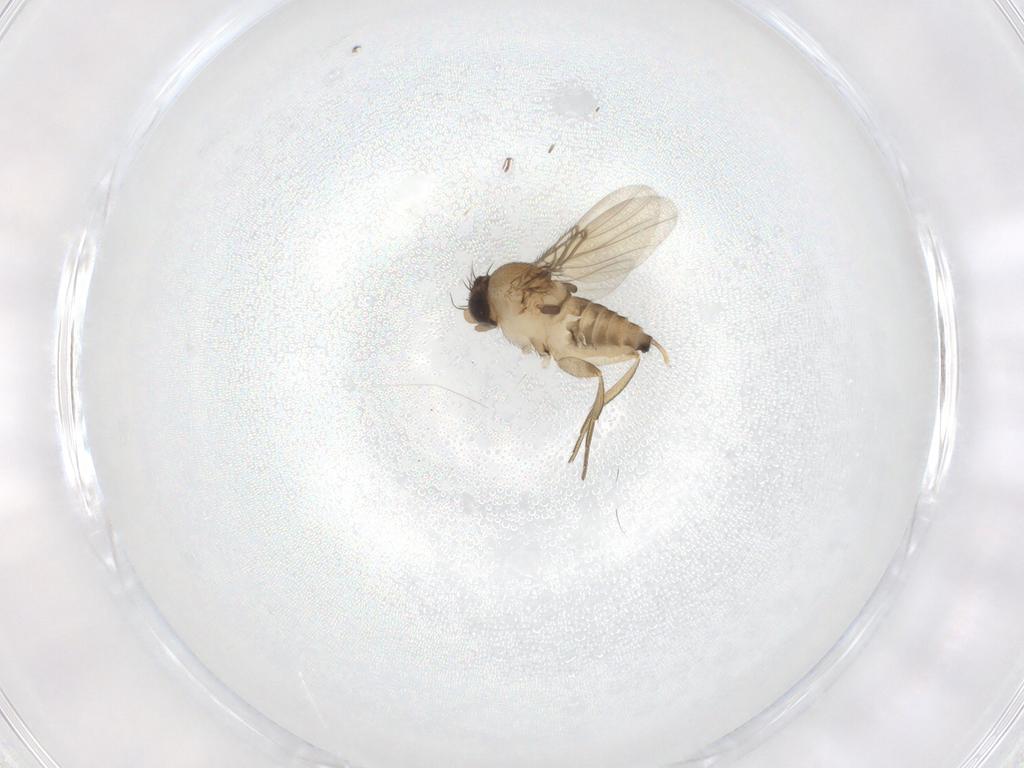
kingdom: Animalia
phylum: Arthropoda
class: Insecta
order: Diptera
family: Phoridae
